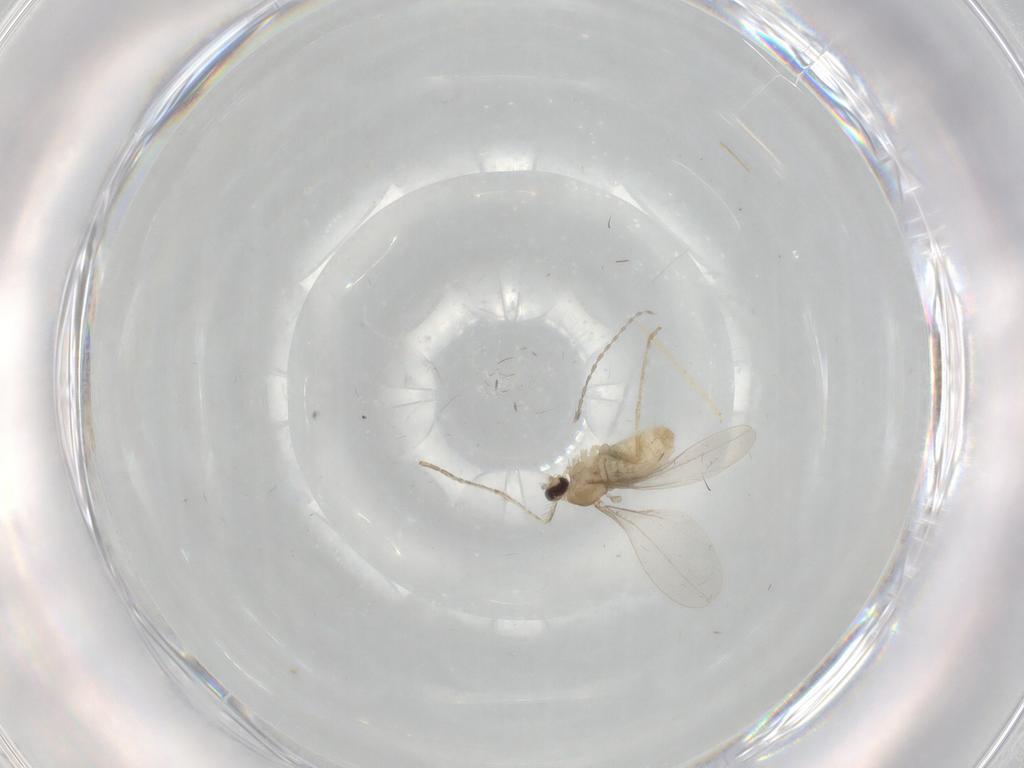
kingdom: Animalia
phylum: Arthropoda
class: Insecta
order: Diptera
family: Cecidomyiidae
